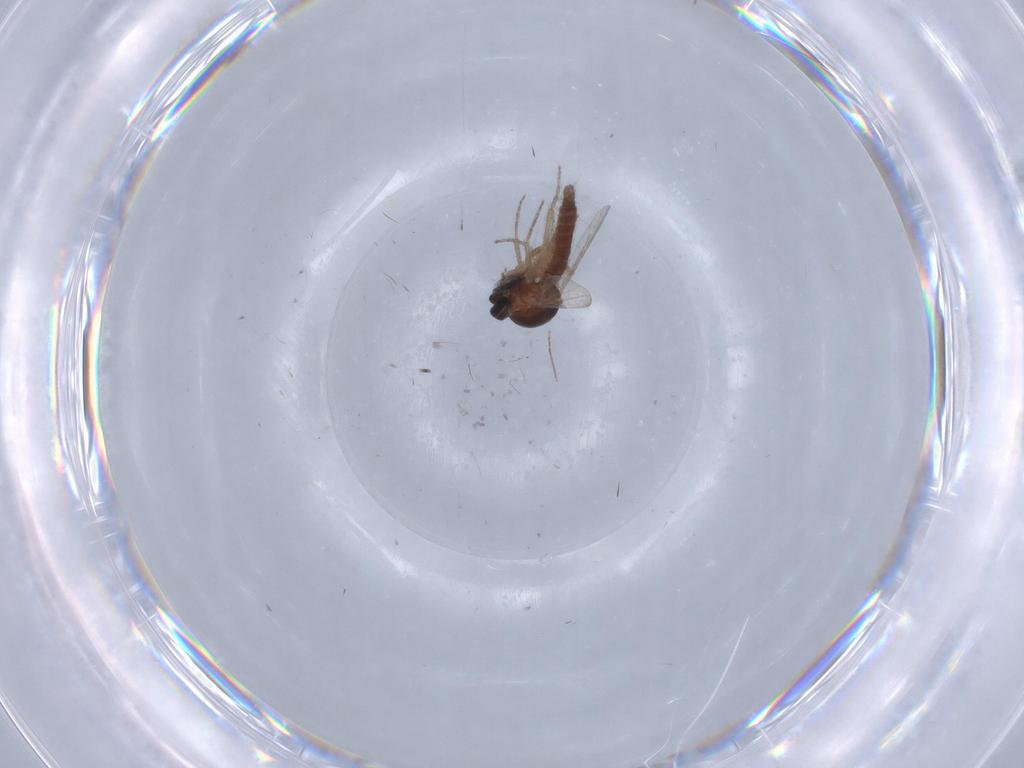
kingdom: Animalia
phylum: Arthropoda
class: Insecta
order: Diptera
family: Ceratopogonidae
